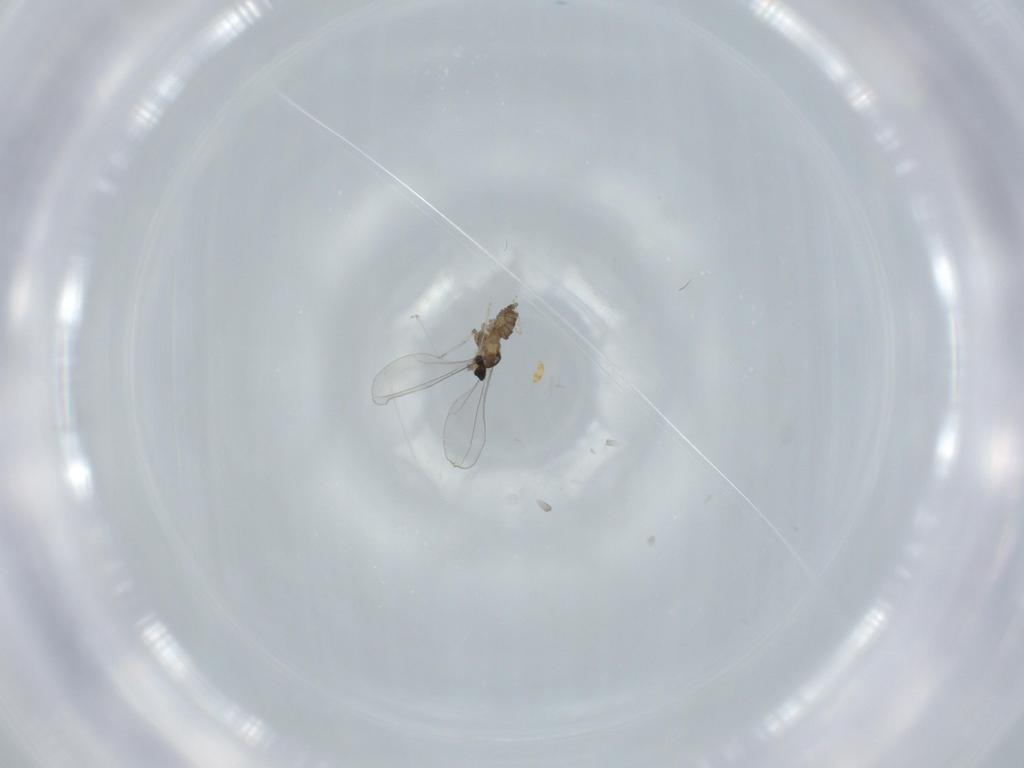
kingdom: Animalia
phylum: Arthropoda
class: Insecta
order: Diptera
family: Cecidomyiidae
